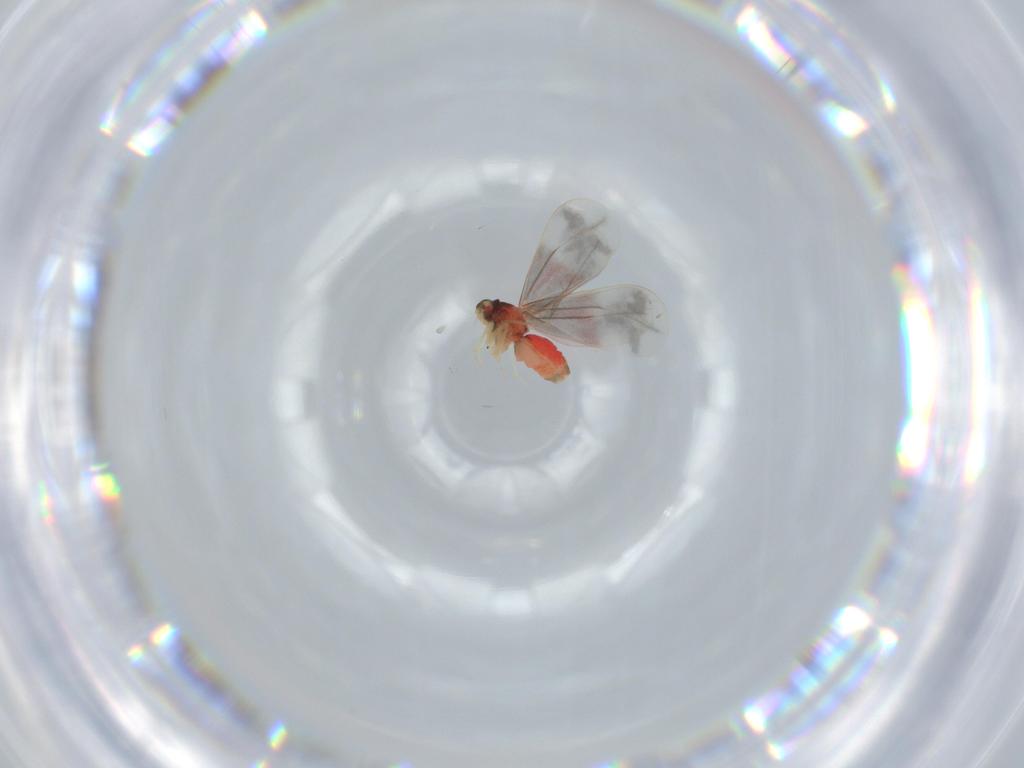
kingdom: Animalia
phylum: Arthropoda
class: Insecta
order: Hemiptera
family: Aleyrodidae
